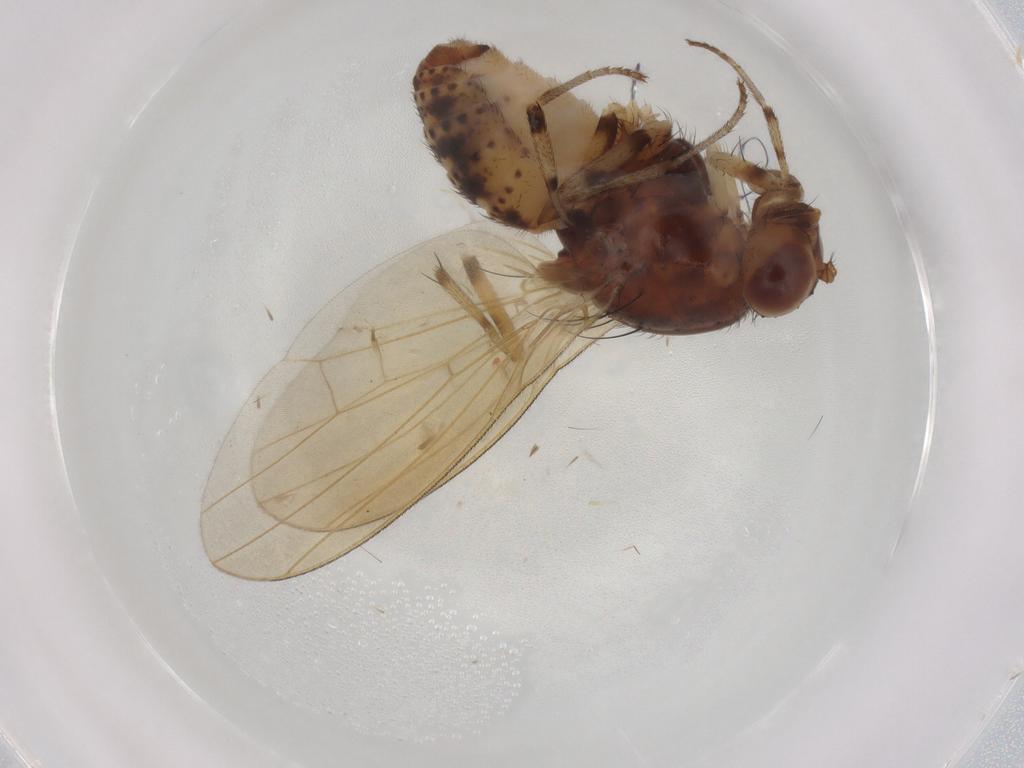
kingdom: Animalia
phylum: Arthropoda
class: Insecta
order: Diptera
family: Lauxaniidae
